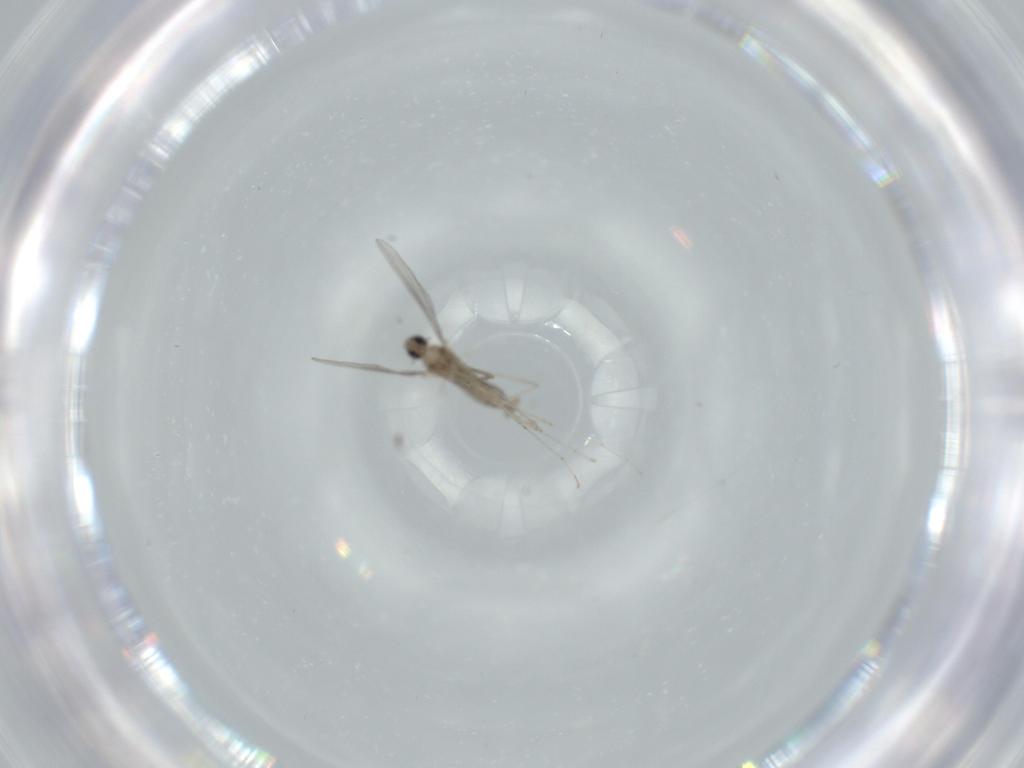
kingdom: Animalia
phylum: Arthropoda
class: Insecta
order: Diptera
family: Cecidomyiidae
